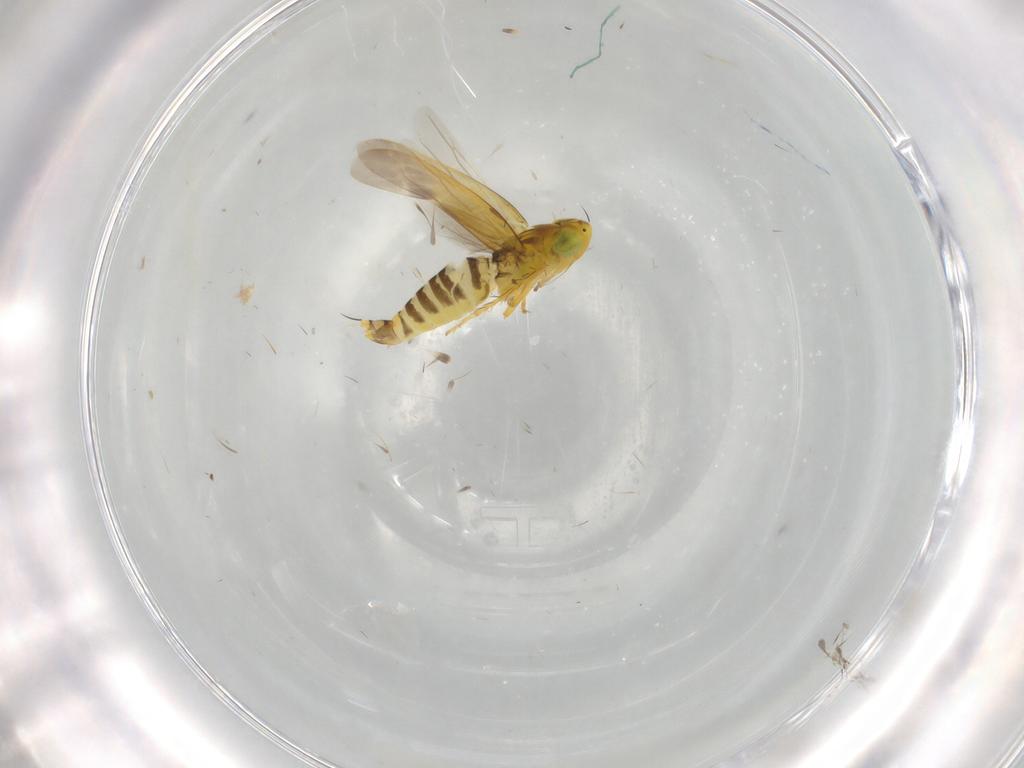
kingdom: Animalia
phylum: Arthropoda
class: Insecta
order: Hemiptera
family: Cicadellidae
